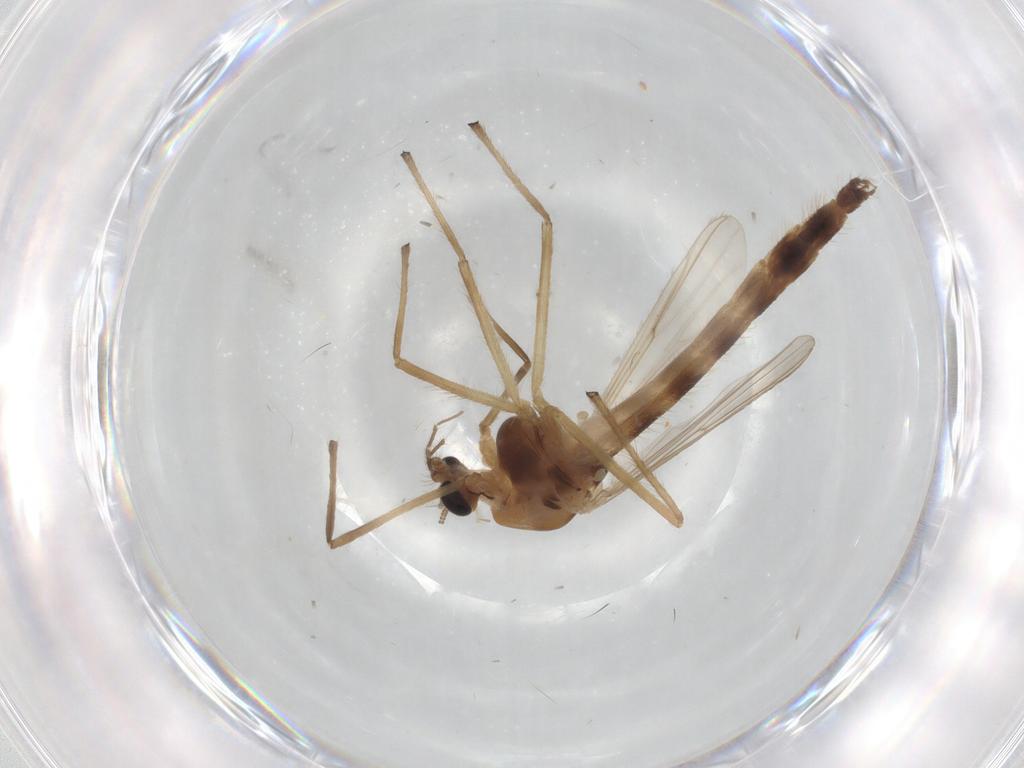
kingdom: Animalia
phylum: Arthropoda
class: Insecta
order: Diptera
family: Chironomidae
